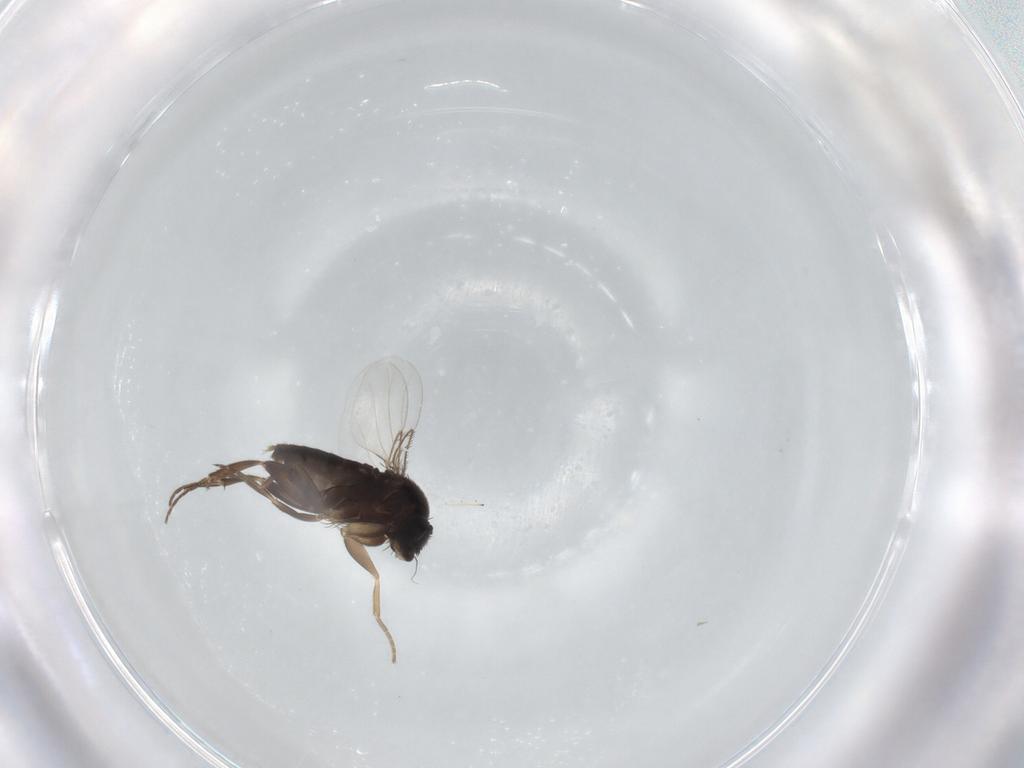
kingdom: Animalia
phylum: Arthropoda
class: Insecta
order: Diptera
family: Phoridae
